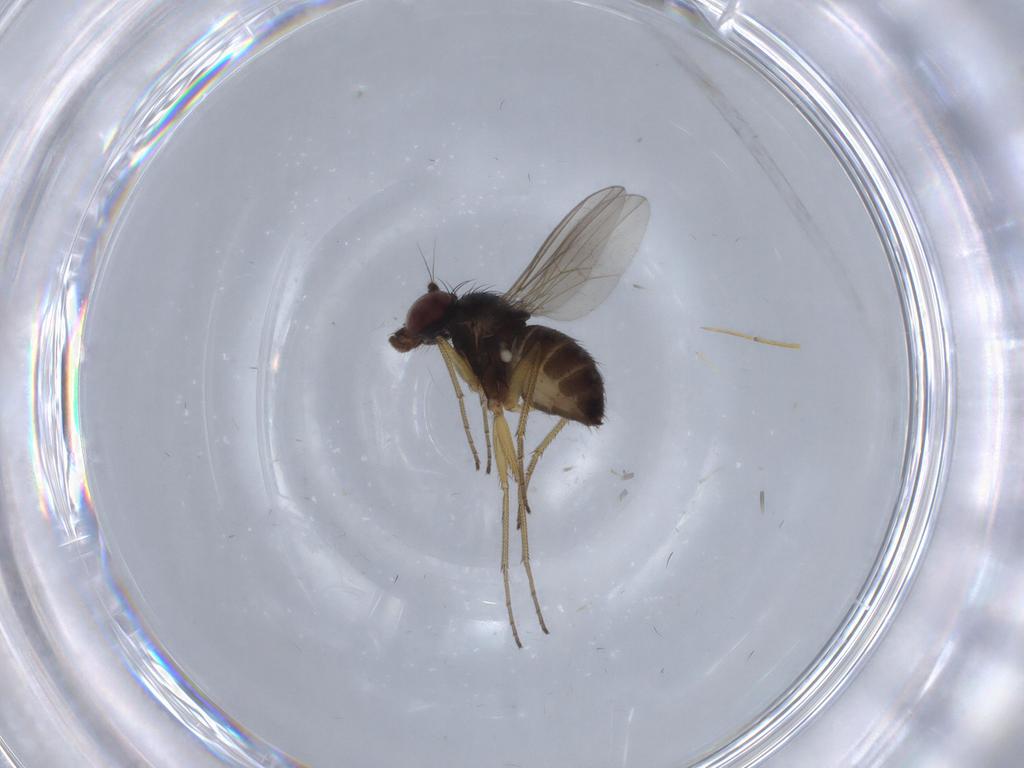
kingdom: Animalia
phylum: Arthropoda
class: Insecta
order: Diptera
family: Dolichopodidae
